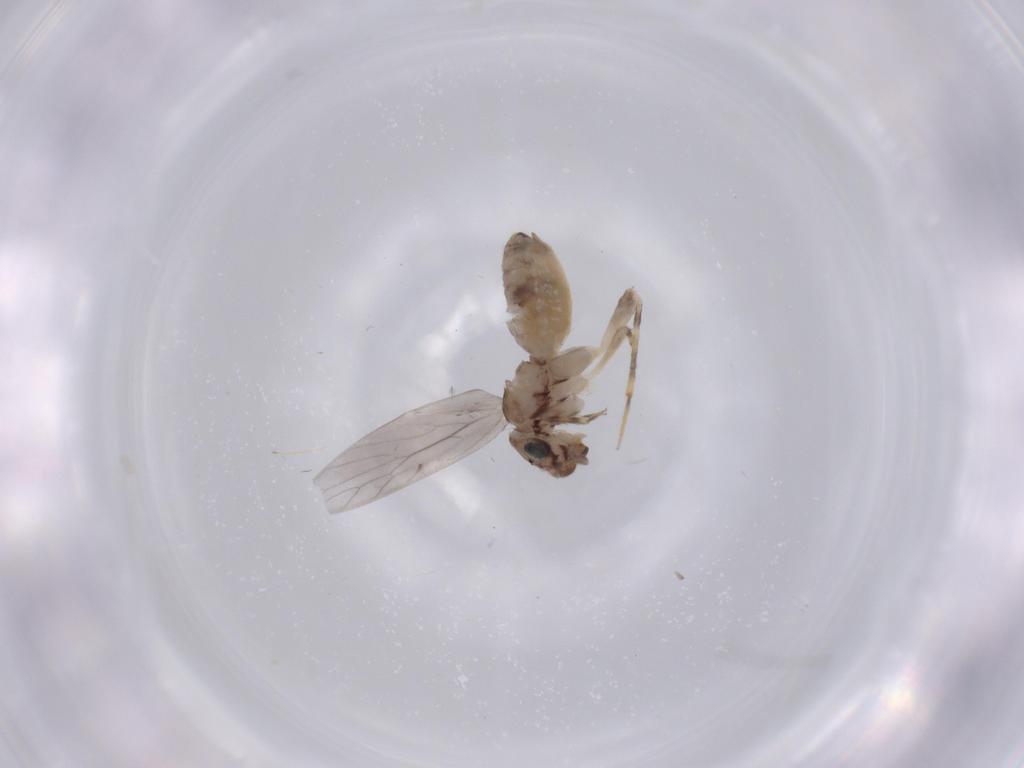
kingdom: Animalia
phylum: Arthropoda
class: Insecta
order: Psocodea
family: Lepidopsocidae
